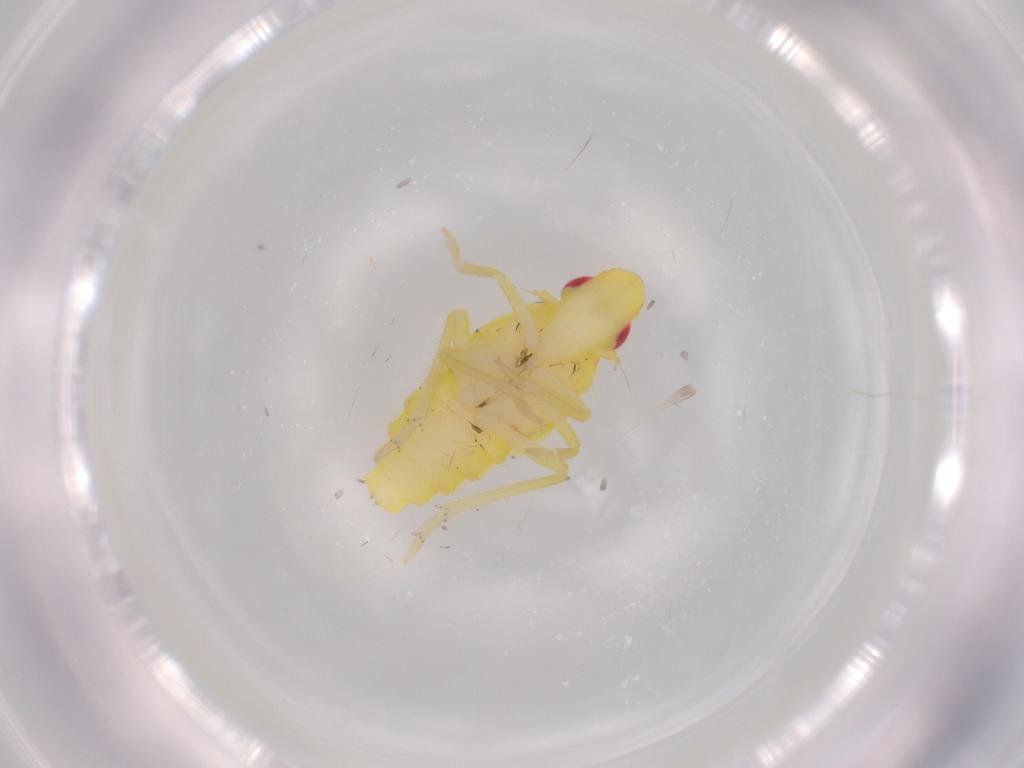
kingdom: Animalia
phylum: Arthropoda
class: Insecta
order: Hemiptera
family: Tropiduchidae
